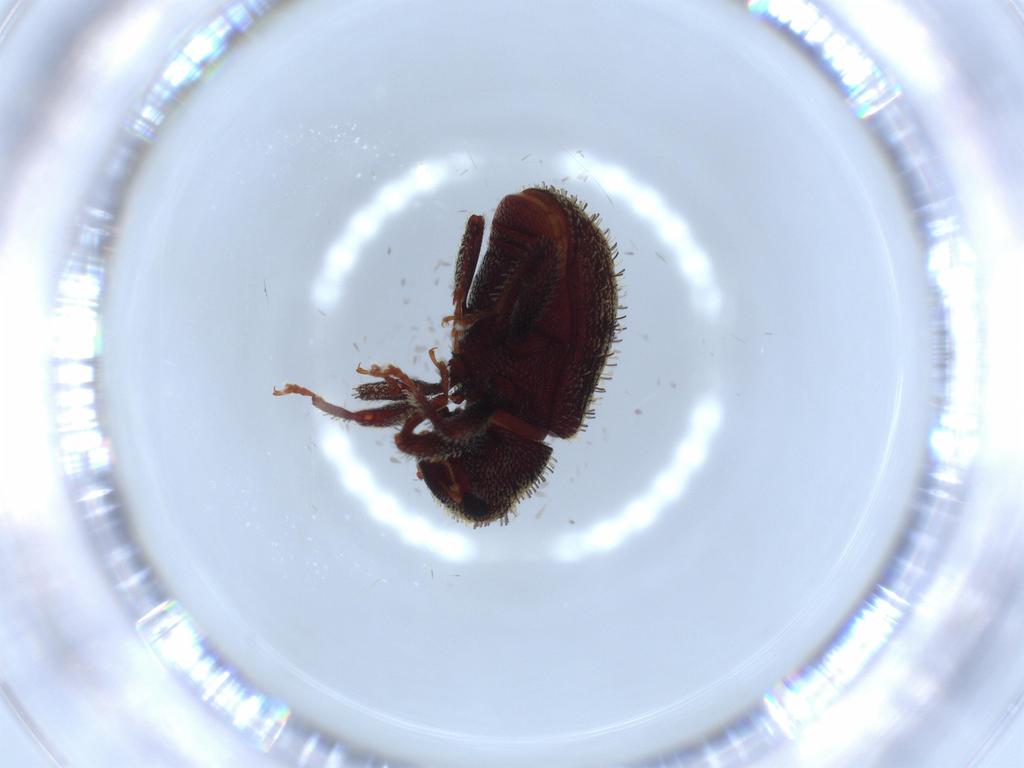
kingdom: Animalia
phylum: Arthropoda
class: Insecta
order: Coleoptera
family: Curculionidae
